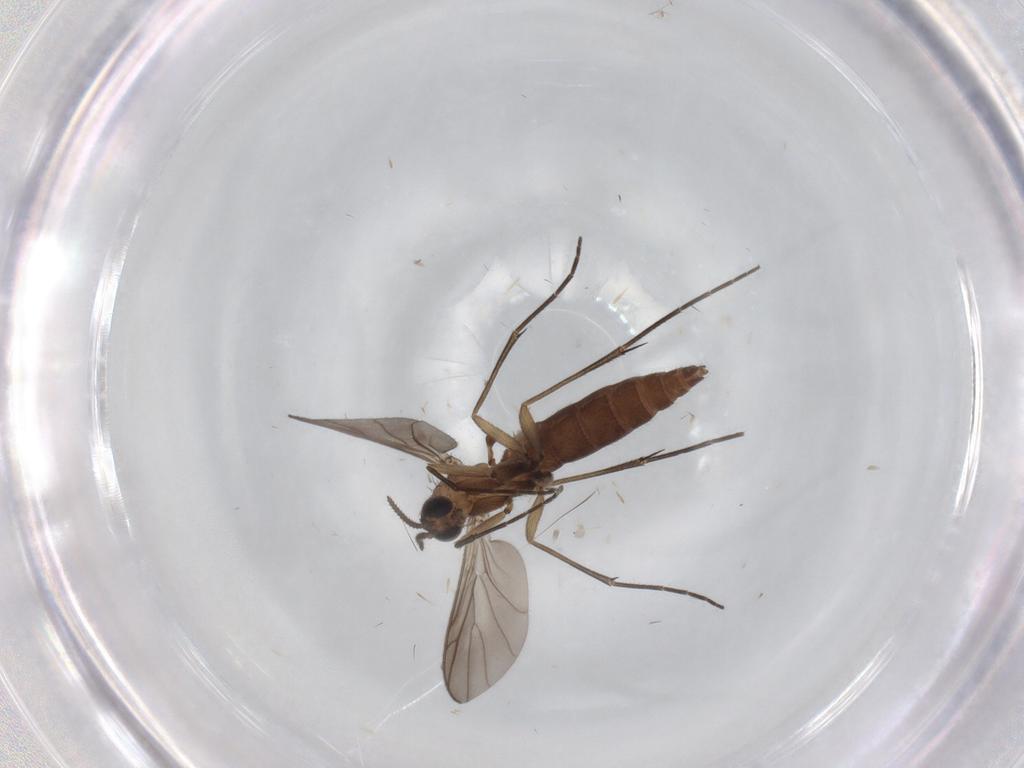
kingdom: Animalia
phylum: Arthropoda
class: Insecta
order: Diptera
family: Keroplatidae
